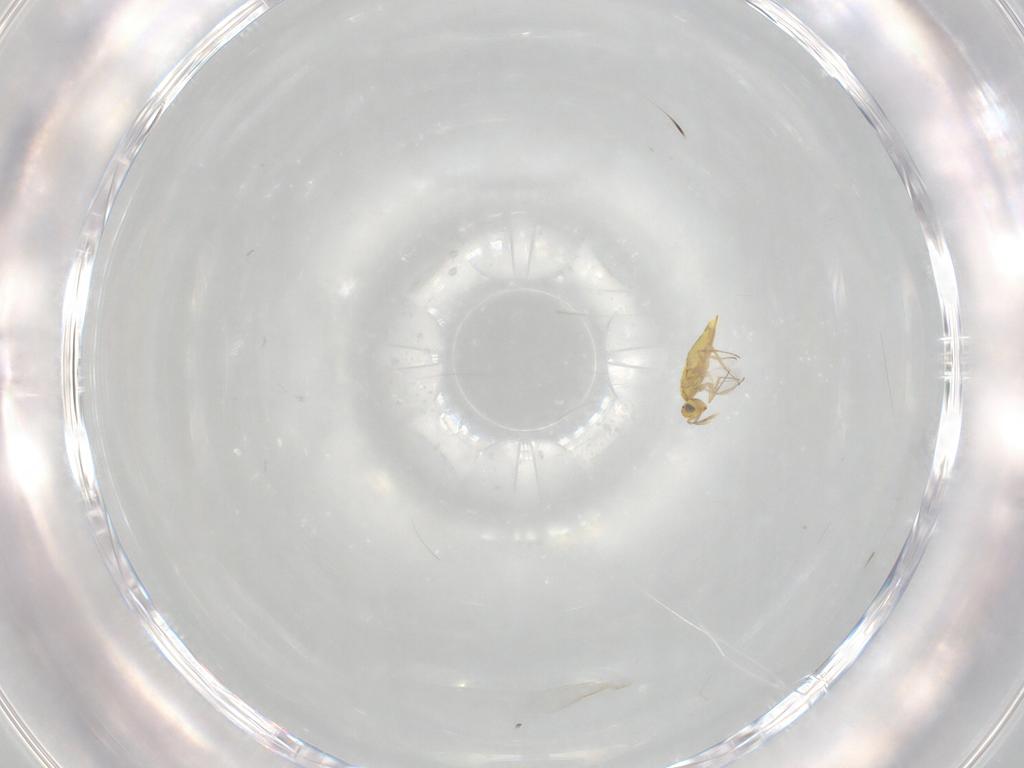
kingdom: Animalia
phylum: Arthropoda
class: Insecta
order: Hymenoptera
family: Aphelinidae
